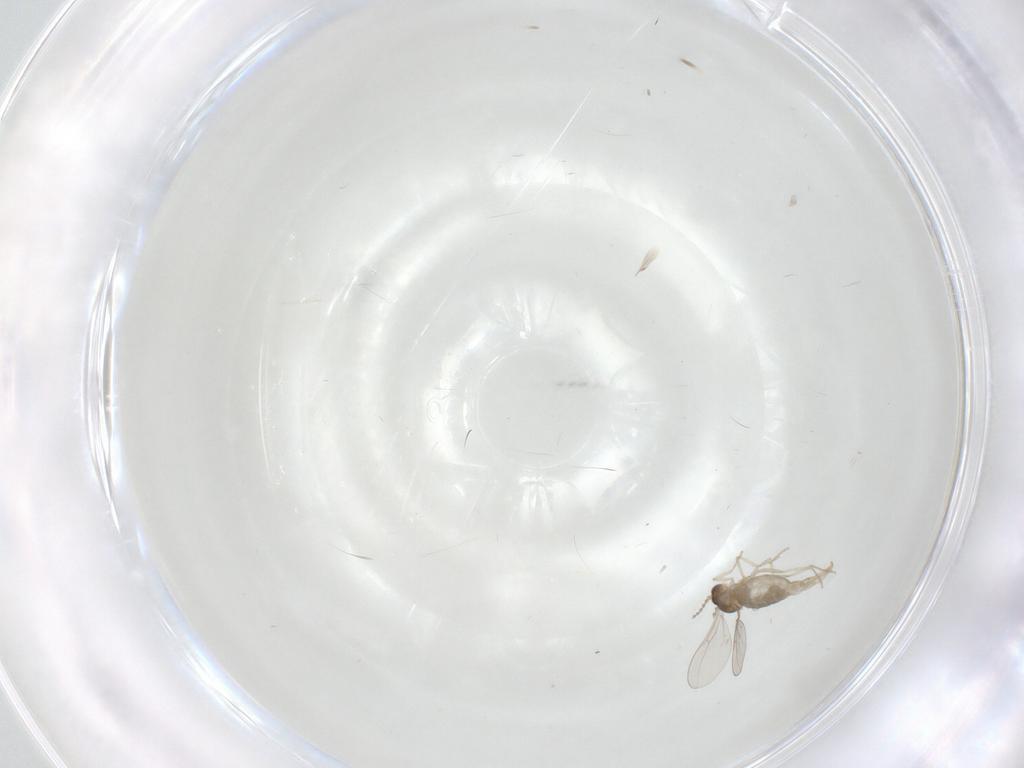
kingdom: Animalia
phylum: Arthropoda
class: Insecta
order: Diptera
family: Cecidomyiidae
